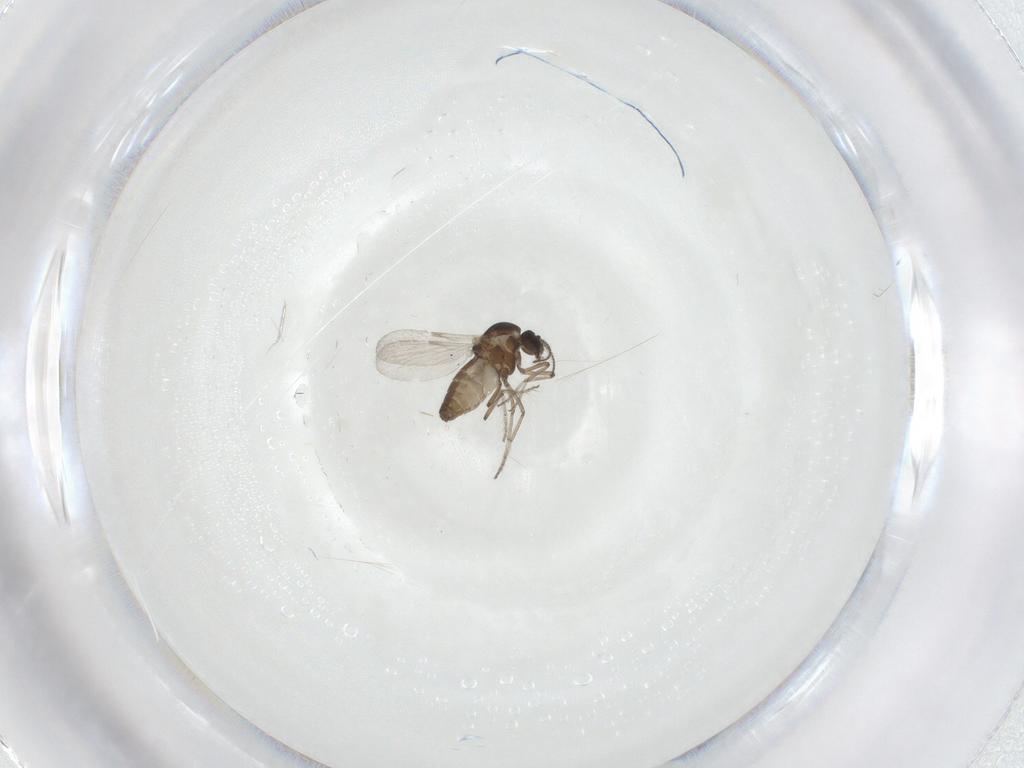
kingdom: Animalia
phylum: Arthropoda
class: Insecta
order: Diptera
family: Ceratopogonidae
